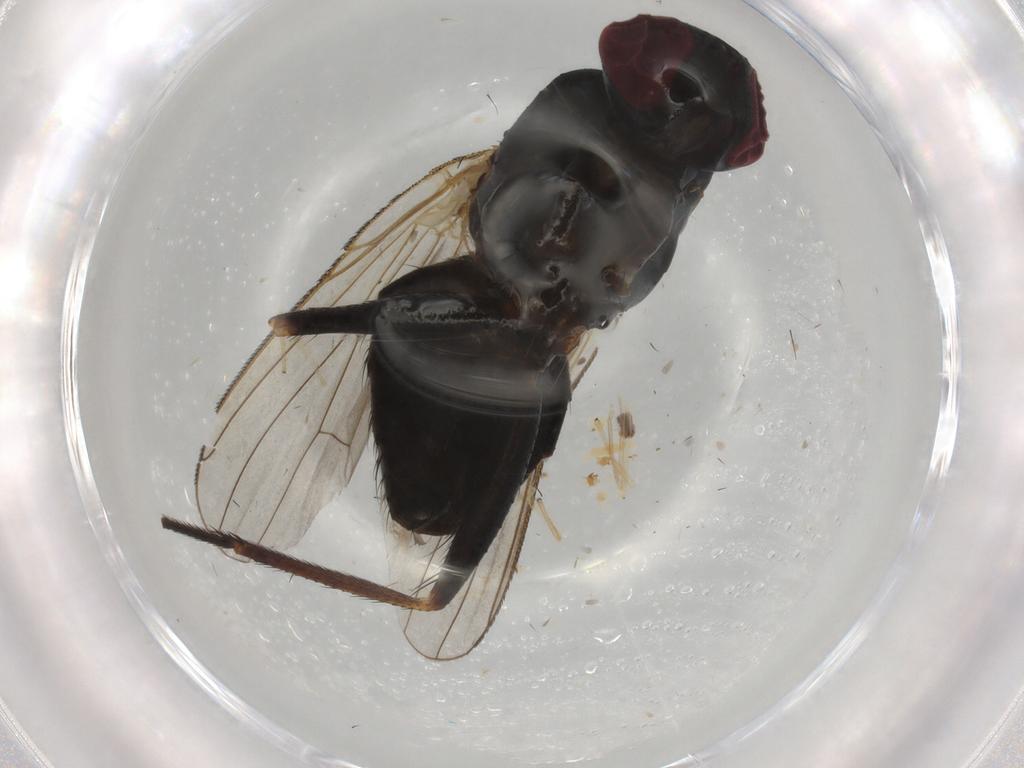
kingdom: Animalia
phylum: Arthropoda
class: Insecta
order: Diptera
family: Muscidae
